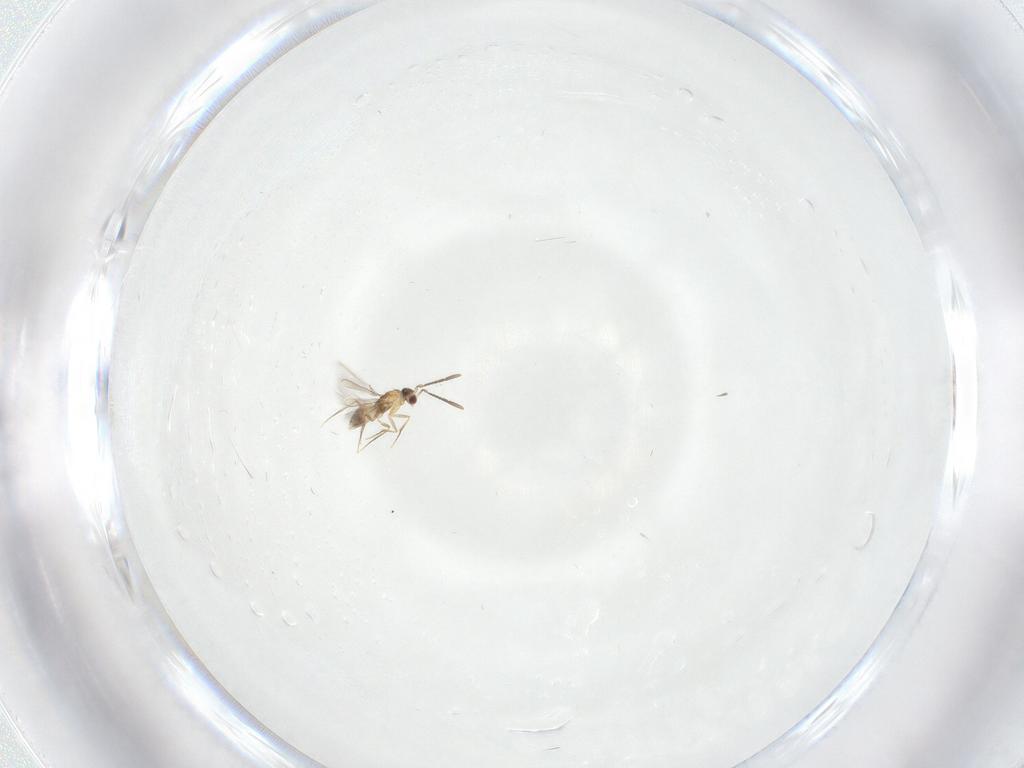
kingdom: Animalia
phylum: Arthropoda
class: Insecta
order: Hymenoptera
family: Mymaridae
